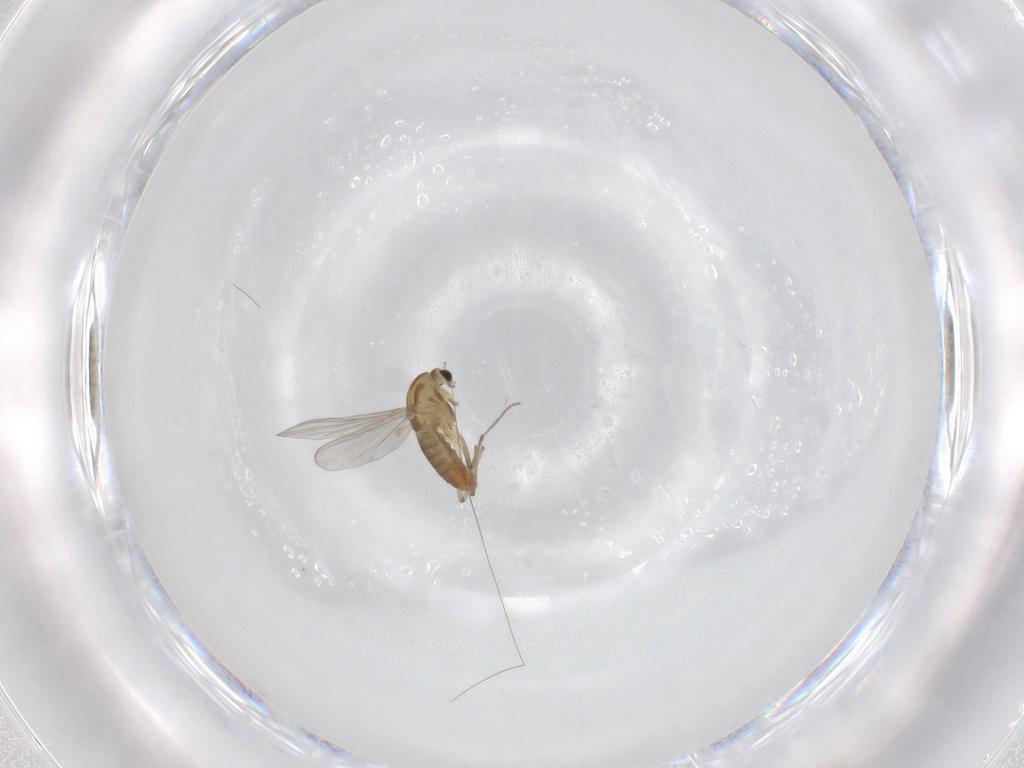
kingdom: Animalia
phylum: Arthropoda
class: Insecta
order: Diptera
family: Chironomidae
